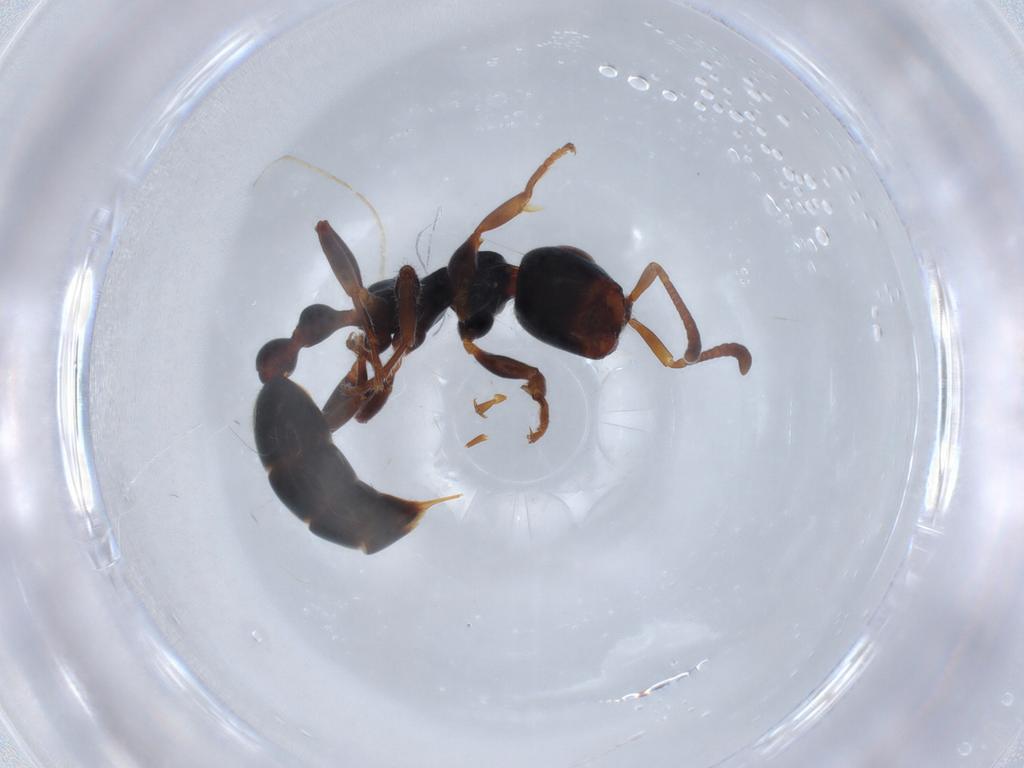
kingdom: Animalia
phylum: Arthropoda
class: Insecta
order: Hymenoptera
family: Formicidae
